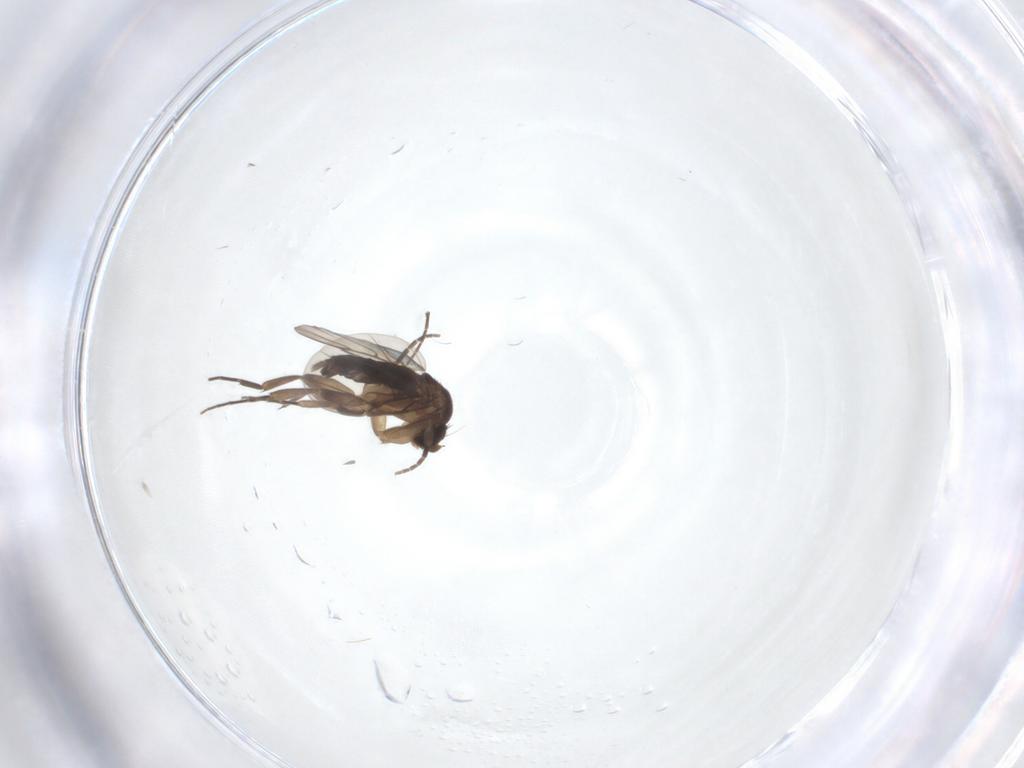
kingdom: Animalia
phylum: Arthropoda
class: Insecta
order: Diptera
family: Phoridae
